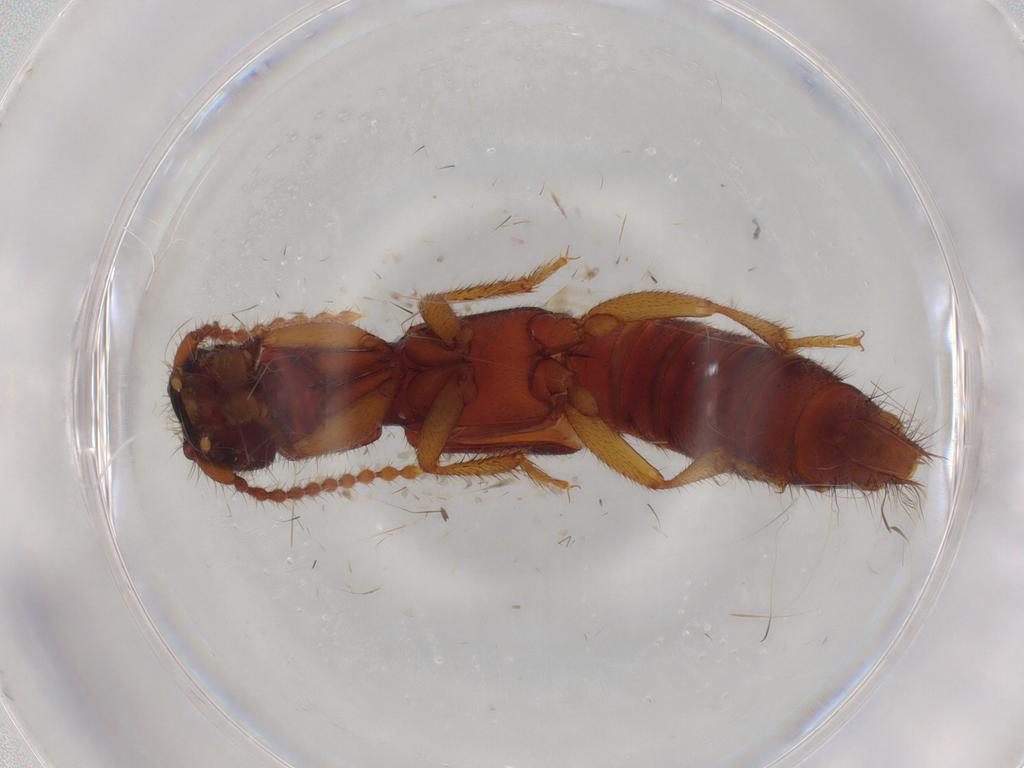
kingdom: Animalia
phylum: Arthropoda
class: Insecta
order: Coleoptera
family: Staphylinidae
